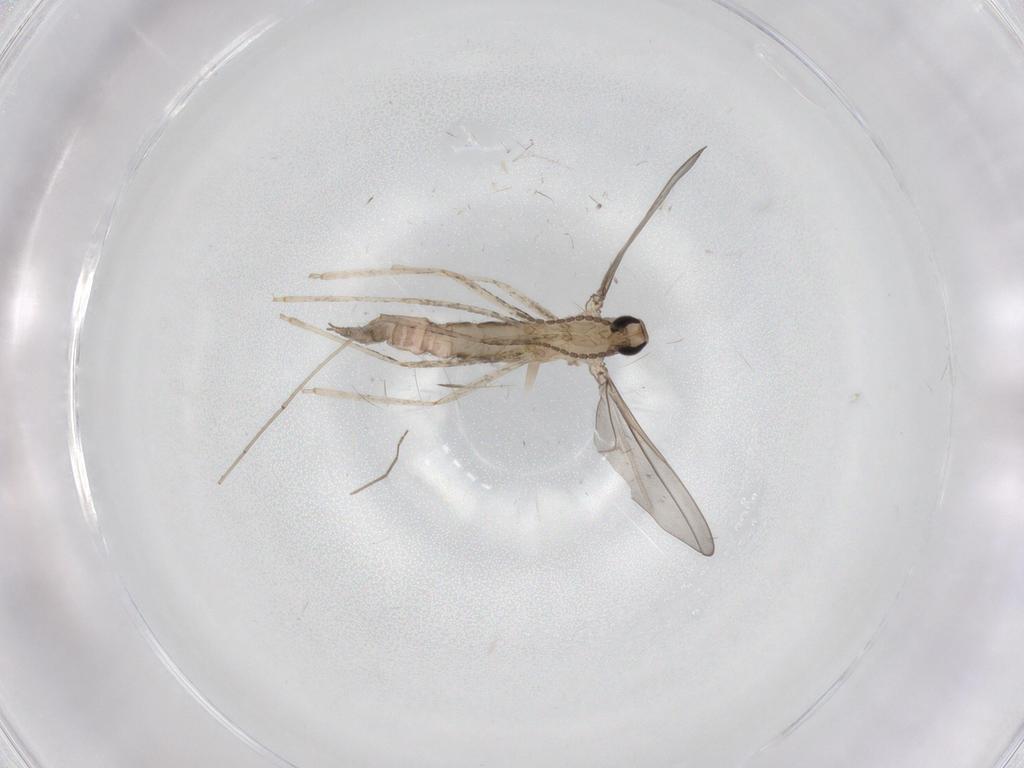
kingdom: Animalia
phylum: Arthropoda
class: Insecta
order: Diptera
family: Cecidomyiidae
